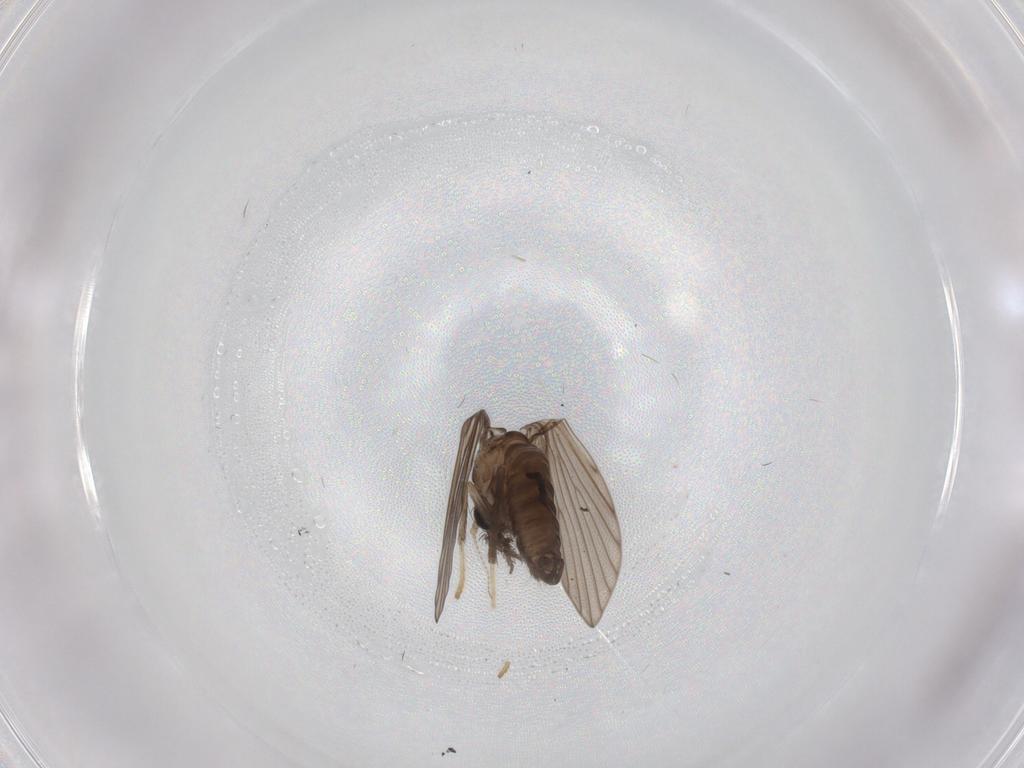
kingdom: Animalia
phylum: Arthropoda
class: Insecta
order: Diptera
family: Psychodidae
